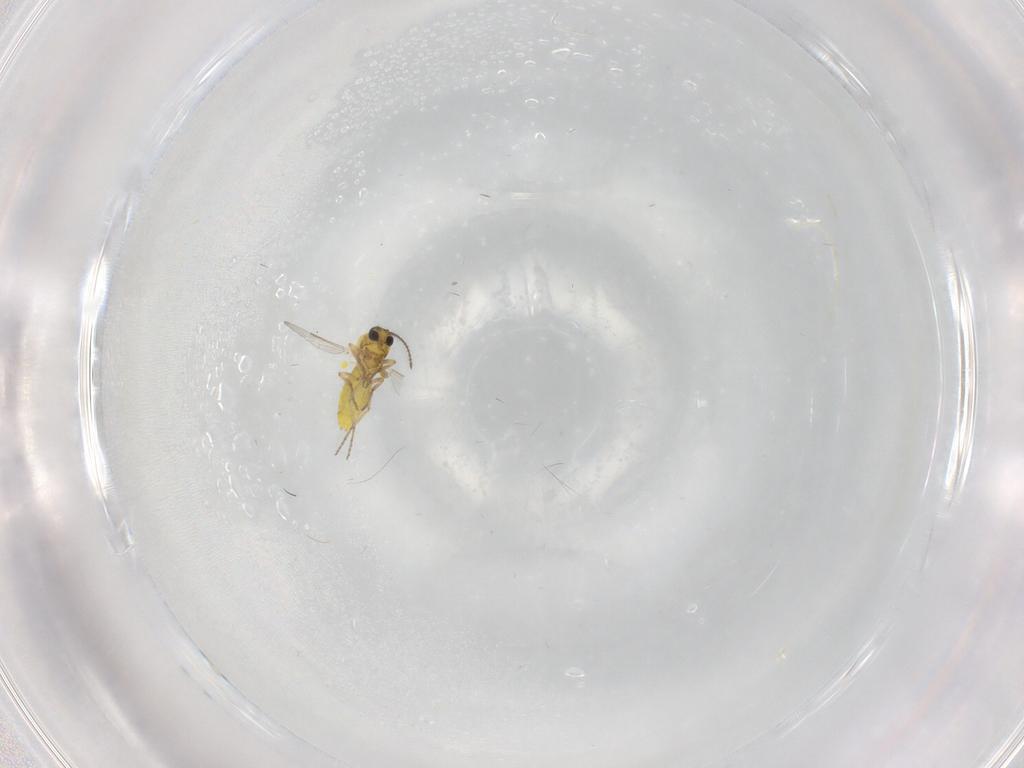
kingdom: Animalia
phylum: Arthropoda
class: Insecta
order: Diptera
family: Ceratopogonidae
